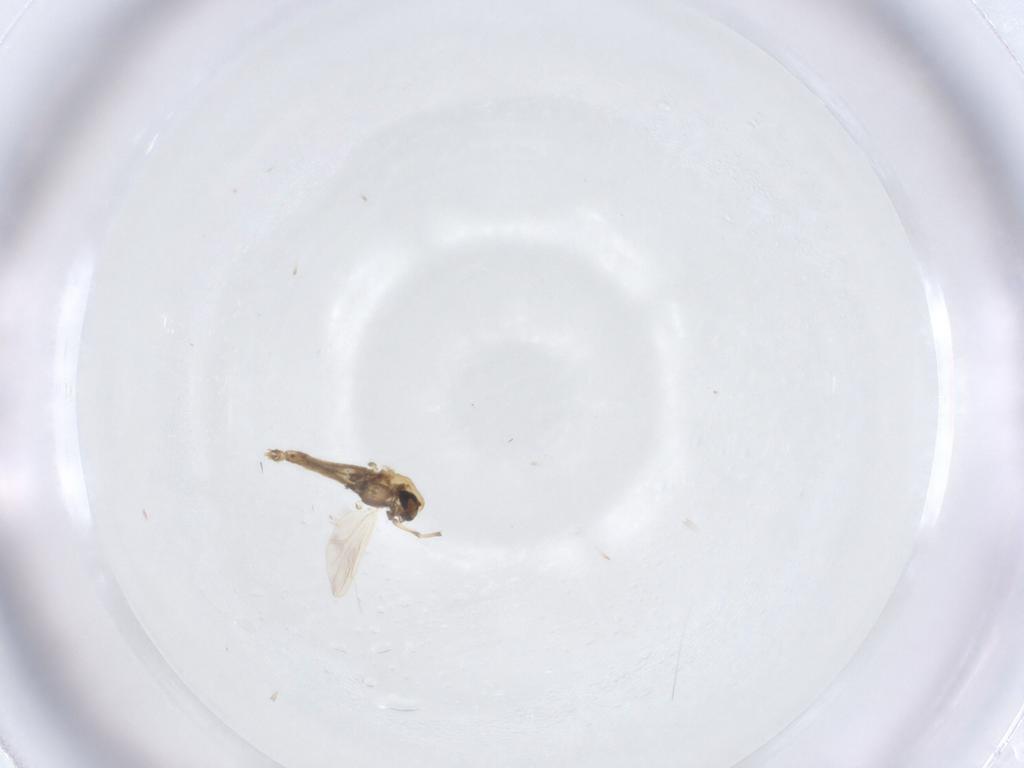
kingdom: Animalia
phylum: Arthropoda
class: Insecta
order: Diptera
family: Chironomidae
